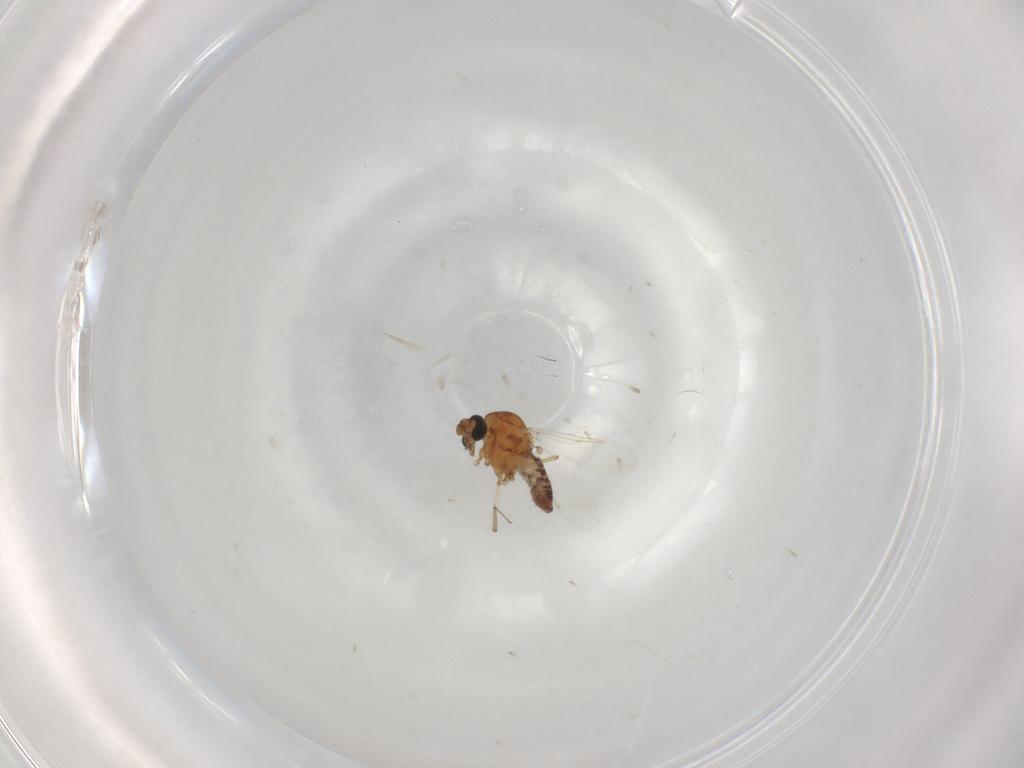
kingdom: Animalia
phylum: Arthropoda
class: Insecta
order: Diptera
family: Ceratopogonidae
